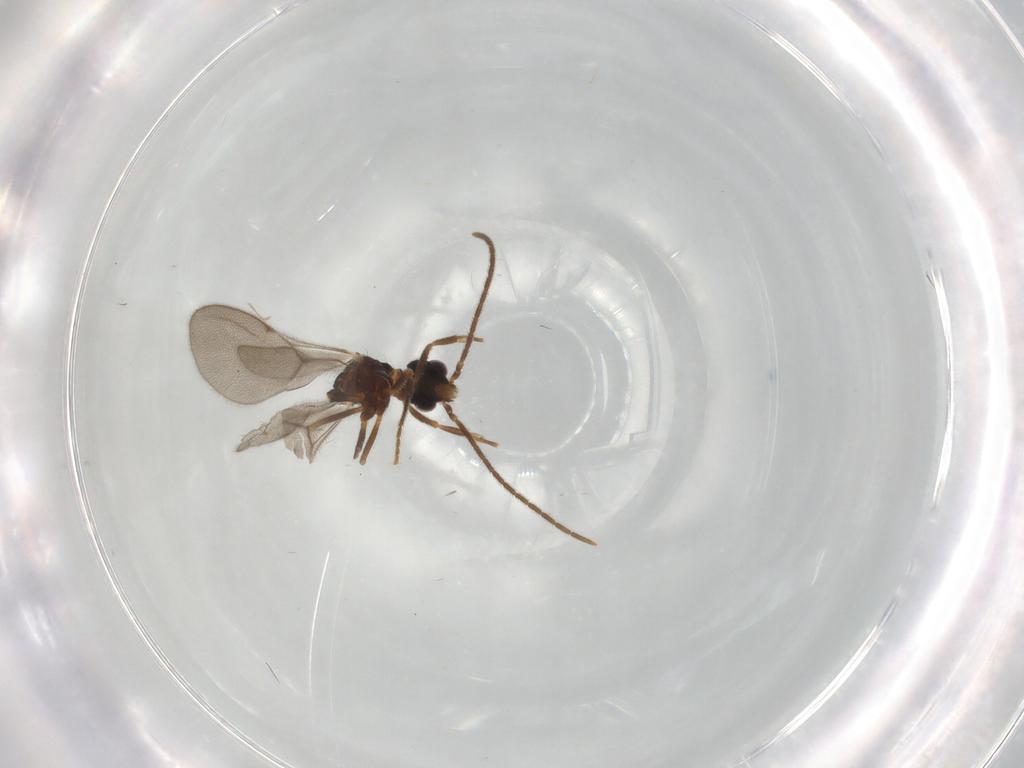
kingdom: Animalia
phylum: Arthropoda
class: Insecta
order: Diptera
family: Mycetophilidae
